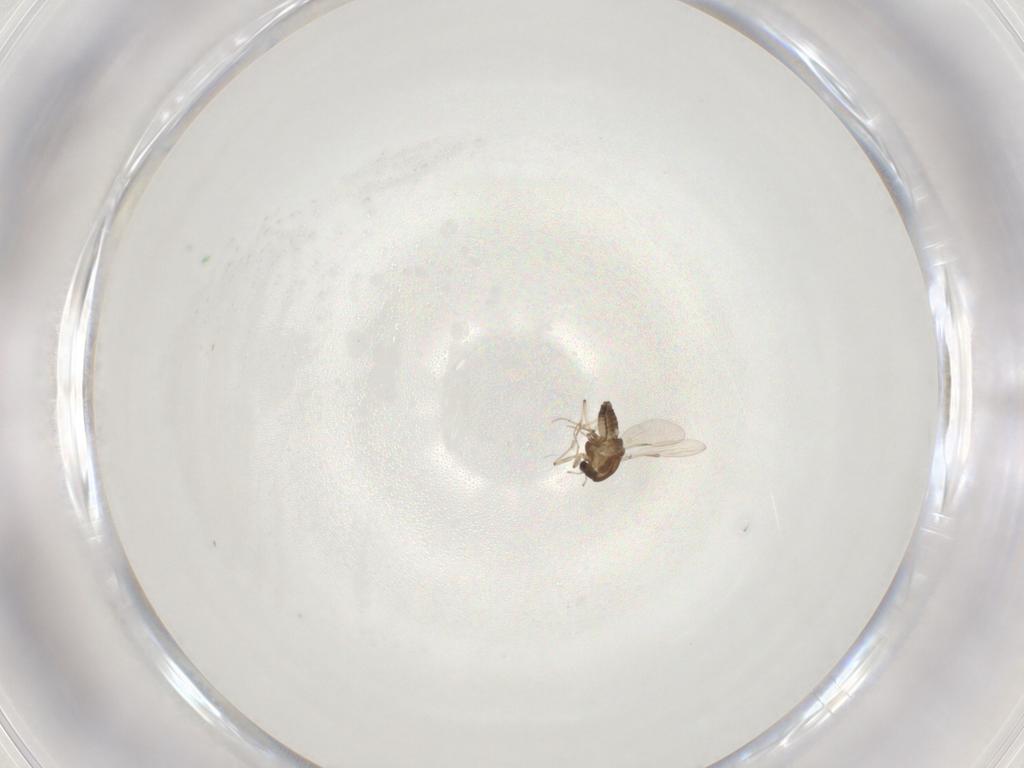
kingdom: Animalia
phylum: Arthropoda
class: Insecta
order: Diptera
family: Chironomidae
